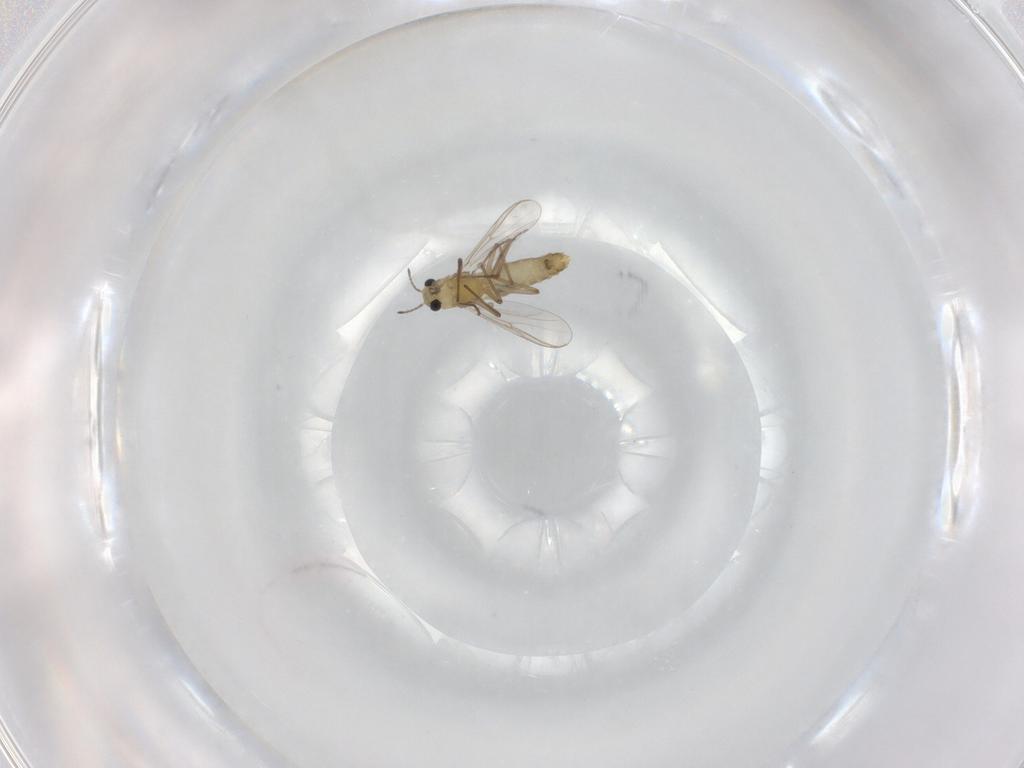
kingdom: Animalia
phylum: Arthropoda
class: Insecta
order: Diptera
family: Chironomidae
